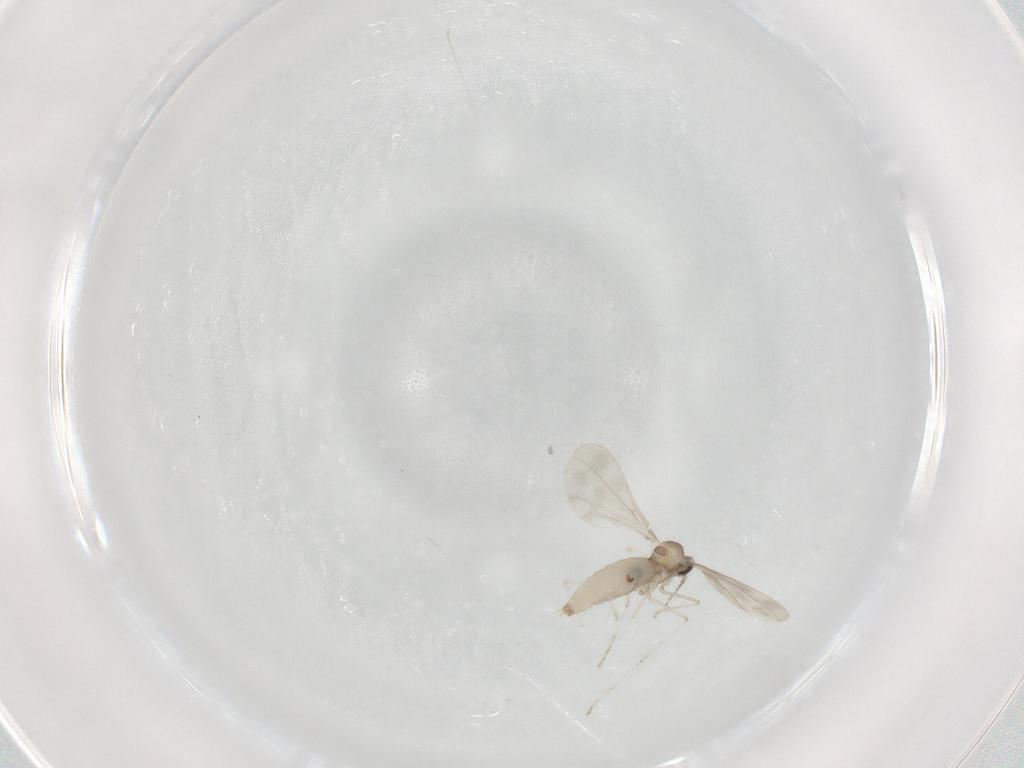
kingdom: Animalia
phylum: Arthropoda
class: Insecta
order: Diptera
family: Cecidomyiidae
